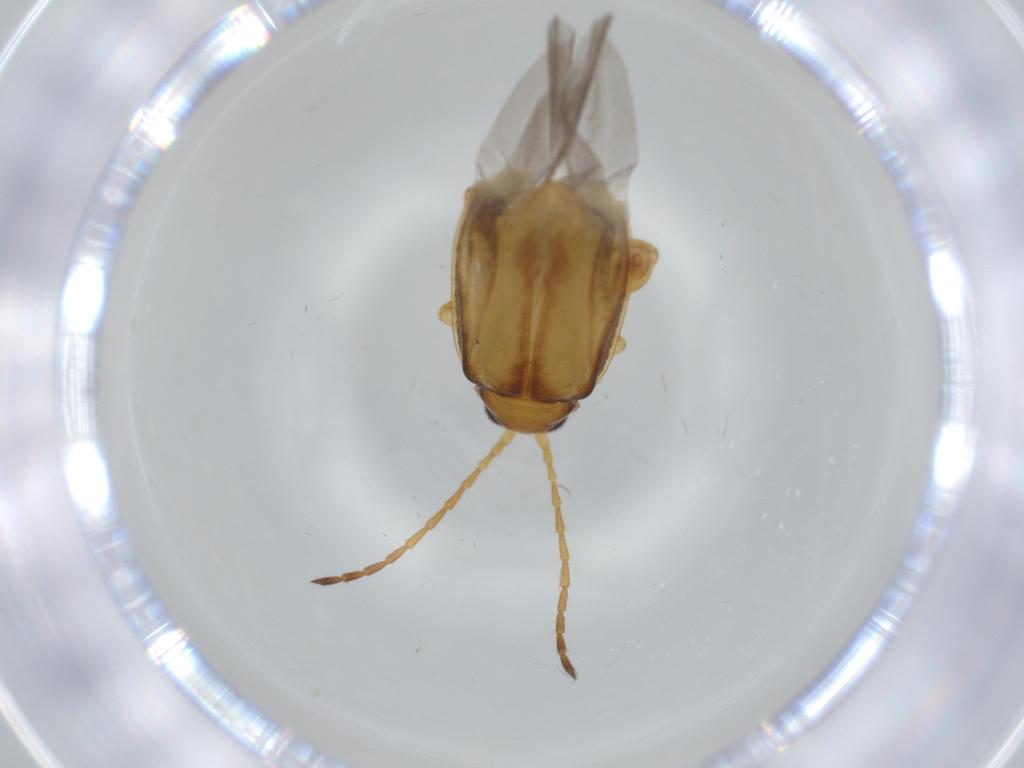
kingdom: Animalia
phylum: Arthropoda
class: Insecta
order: Coleoptera
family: Chrysomelidae
